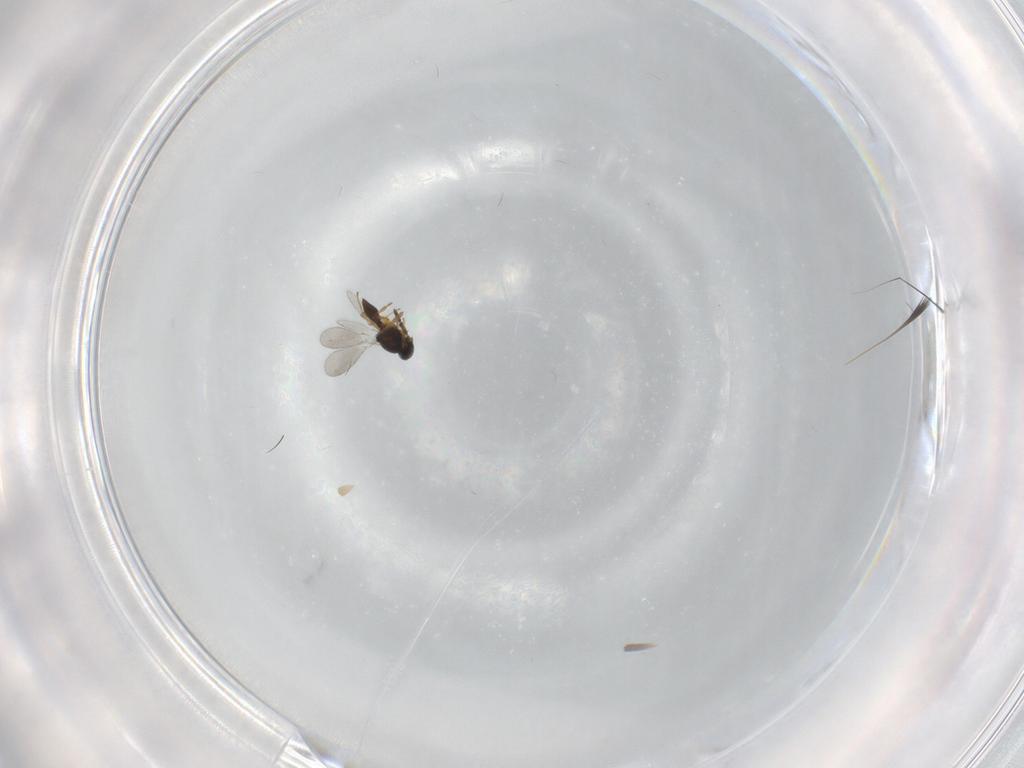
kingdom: Animalia
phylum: Arthropoda
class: Insecta
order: Hymenoptera
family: Platygastridae
